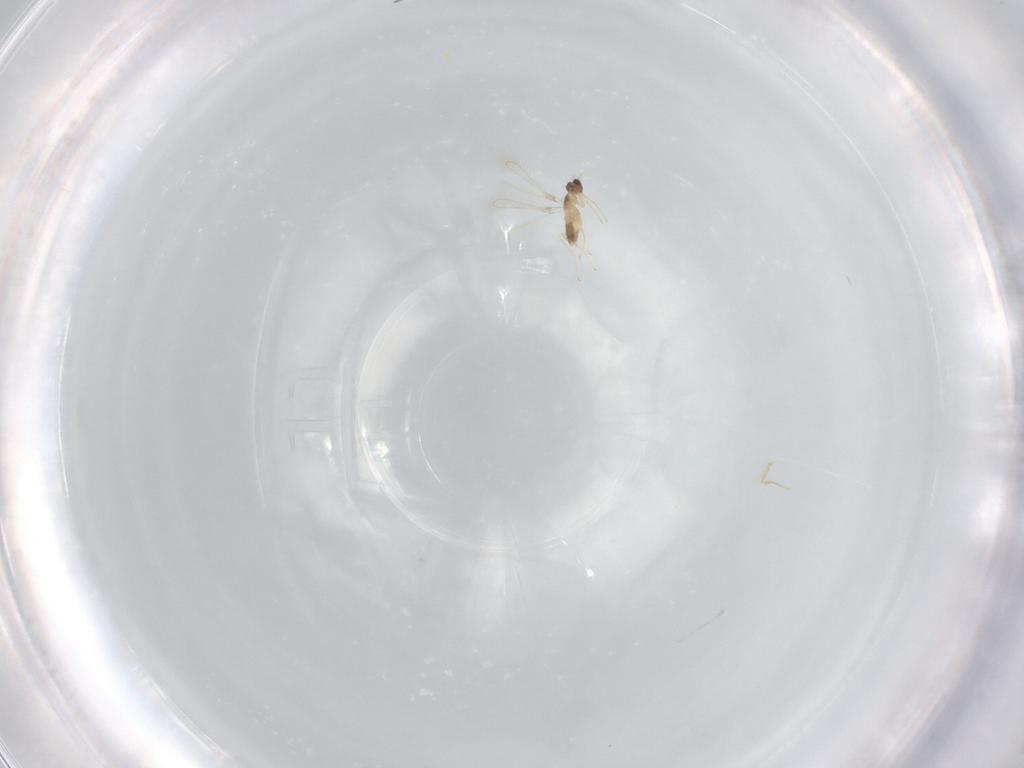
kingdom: Animalia
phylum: Arthropoda
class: Insecta
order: Hymenoptera
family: Mymaridae
